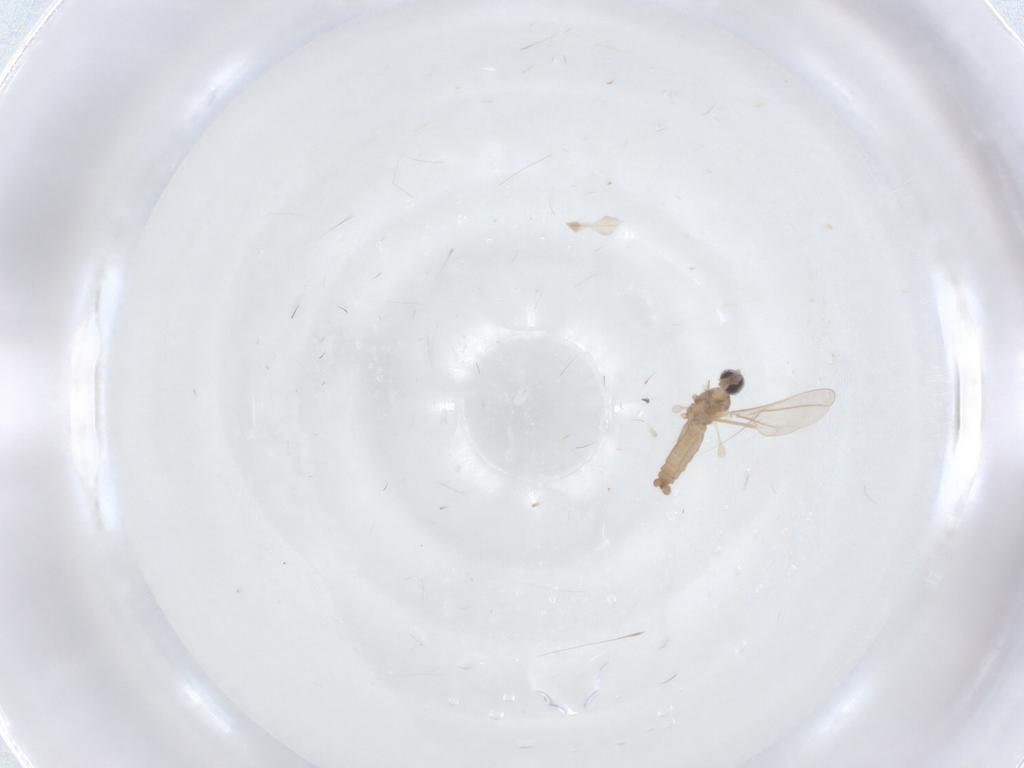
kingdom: Animalia
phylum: Arthropoda
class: Insecta
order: Diptera
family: Cecidomyiidae
